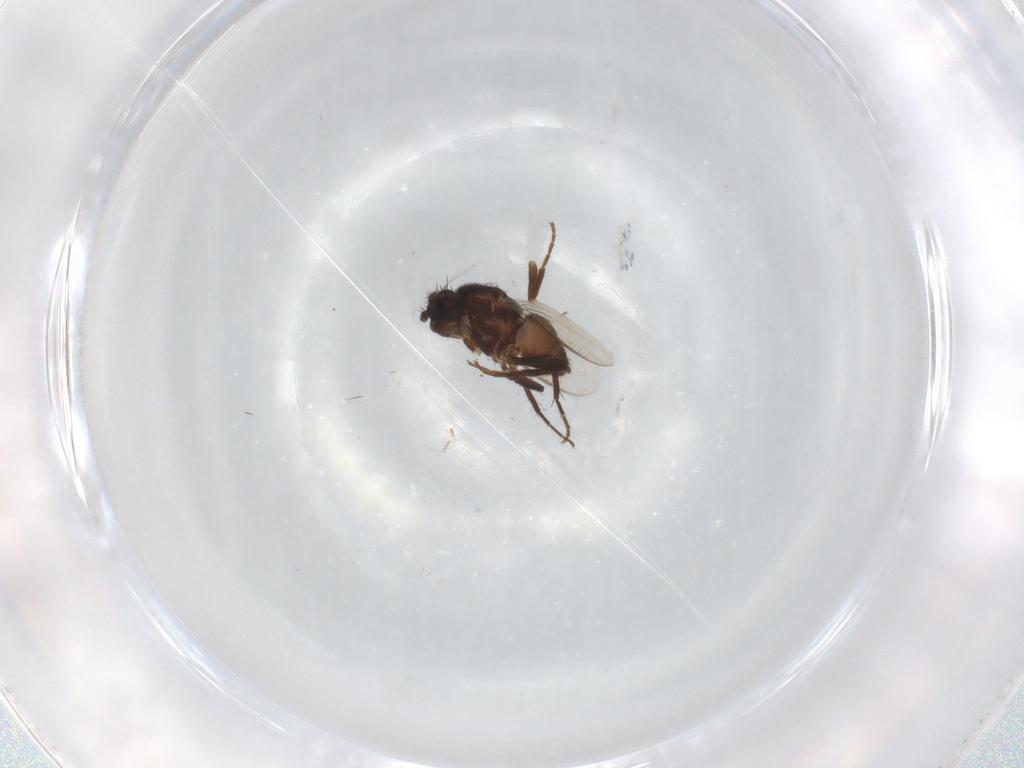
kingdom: Animalia
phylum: Arthropoda
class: Insecta
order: Diptera
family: Sphaeroceridae
